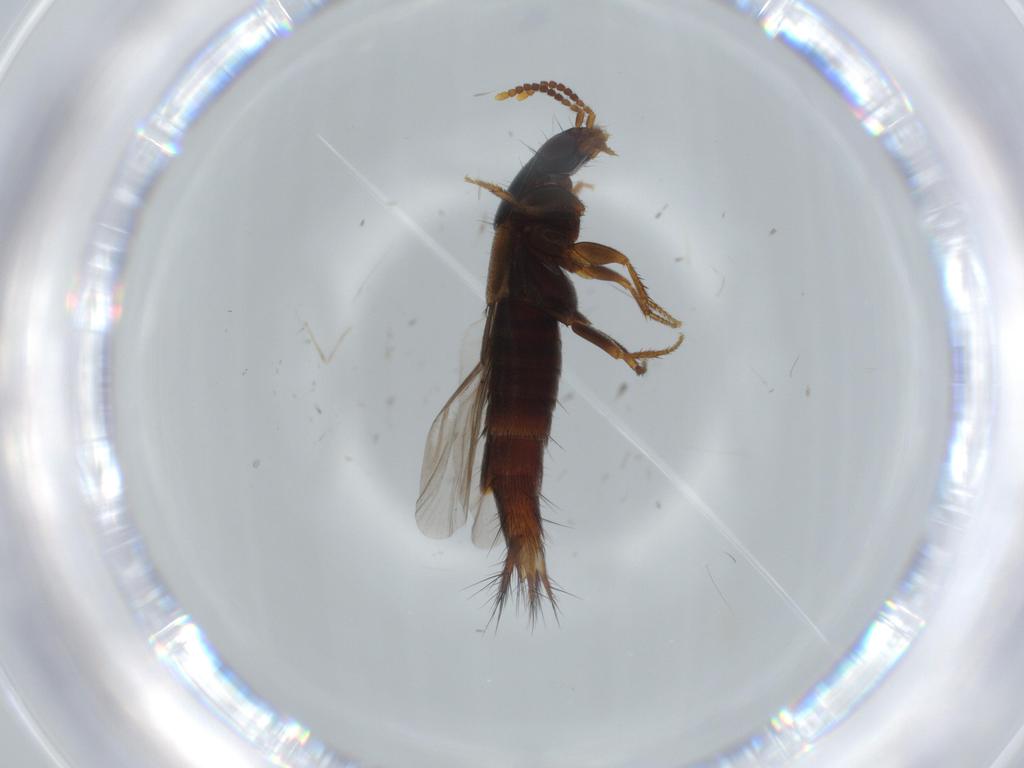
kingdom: Animalia
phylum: Arthropoda
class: Insecta
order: Coleoptera
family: Staphylinidae
